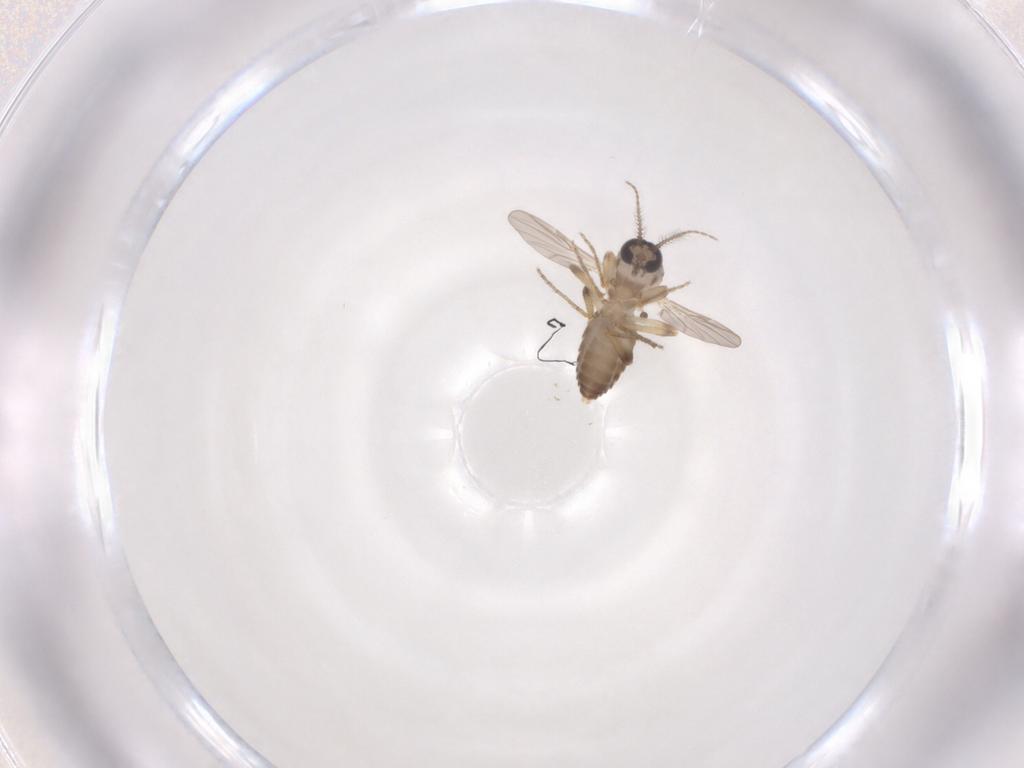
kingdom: Animalia
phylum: Arthropoda
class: Insecta
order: Diptera
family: Ceratopogonidae
